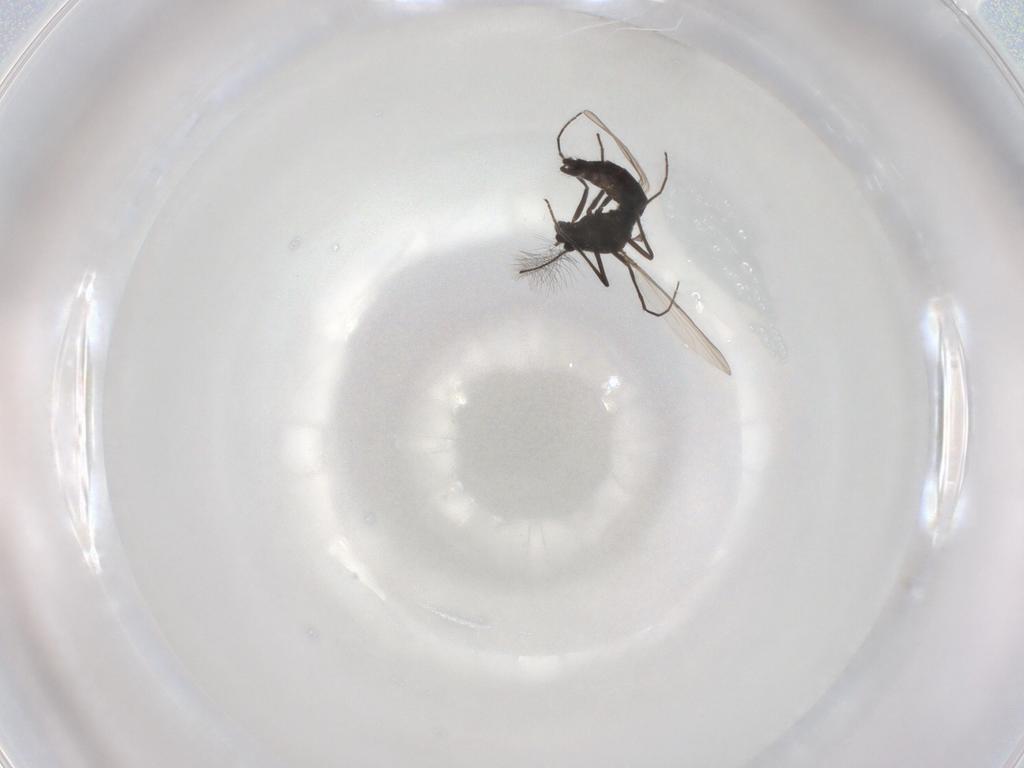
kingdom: Animalia
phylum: Arthropoda
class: Insecta
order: Diptera
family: Chironomidae
